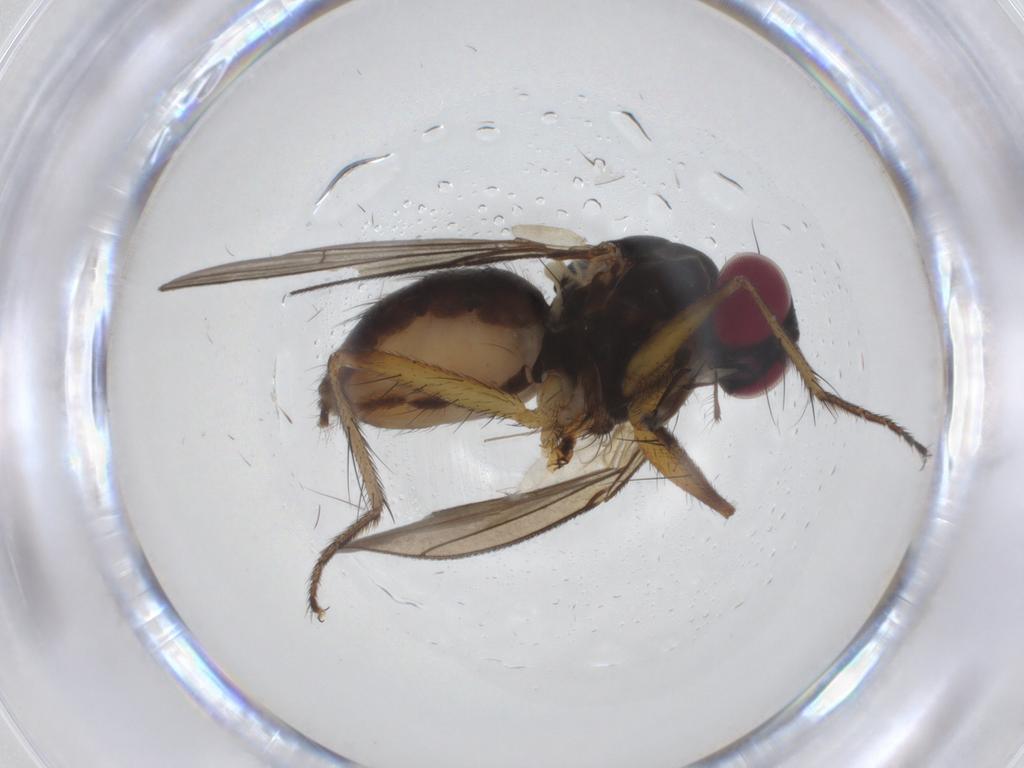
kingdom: Animalia
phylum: Arthropoda
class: Insecta
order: Diptera
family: Anthomyiidae
